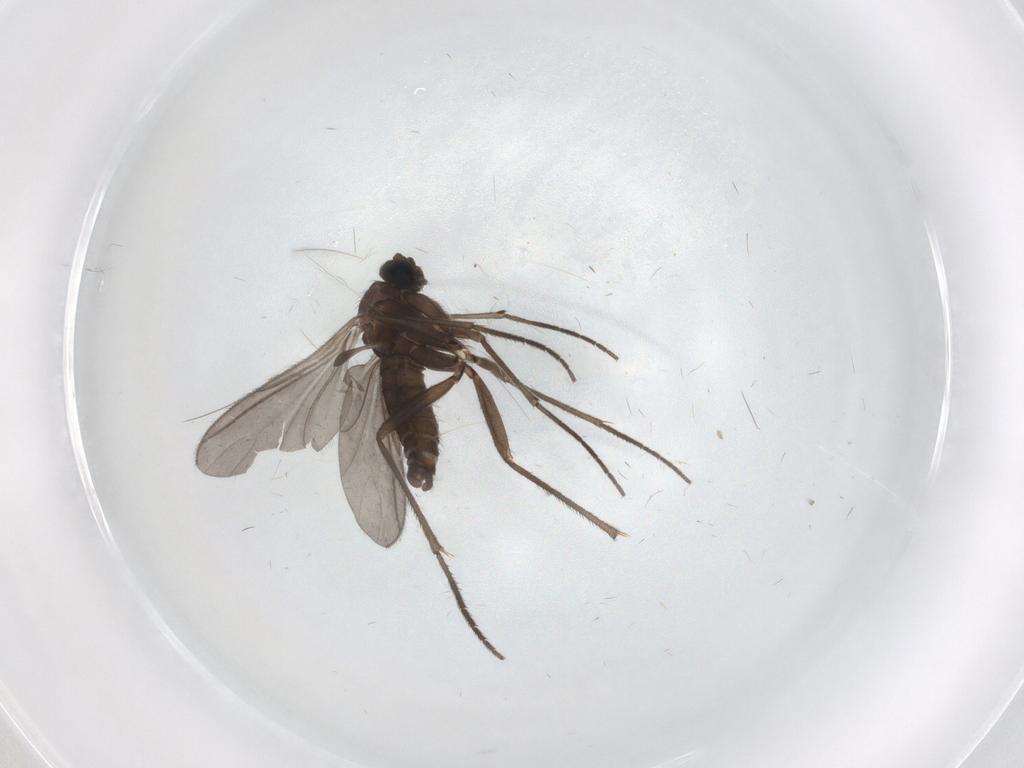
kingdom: Animalia
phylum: Arthropoda
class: Insecta
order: Diptera
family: Sciaridae
